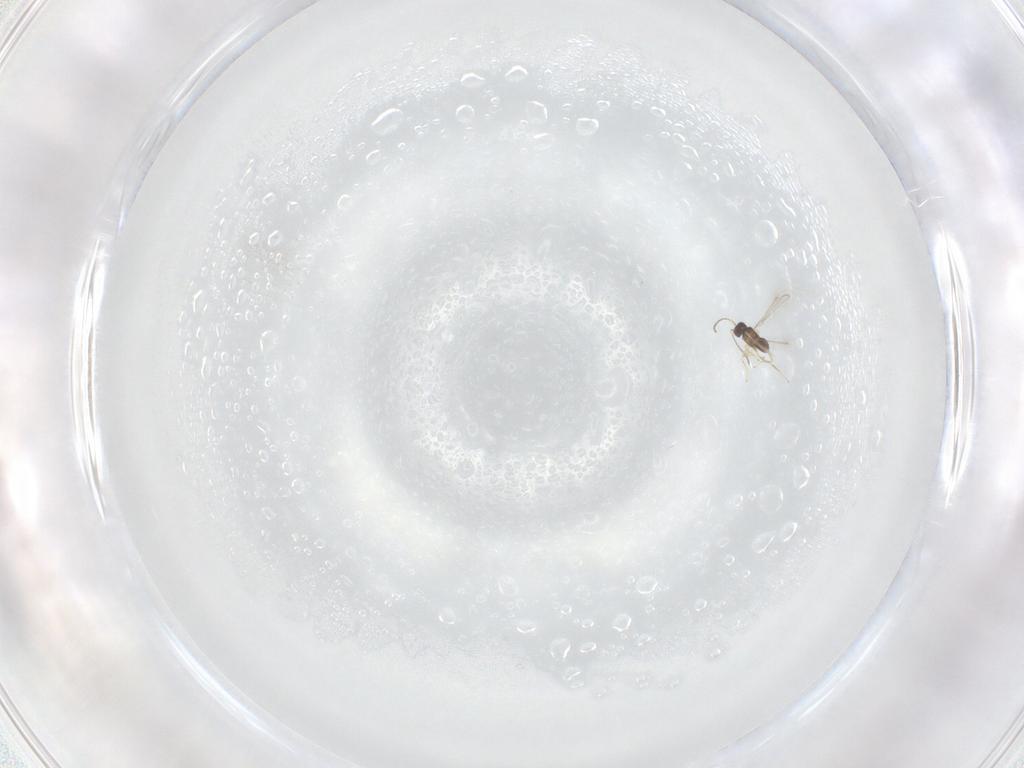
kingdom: Animalia
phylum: Arthropoda
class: Insecta
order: Hymenoptera
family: Mymaridae
